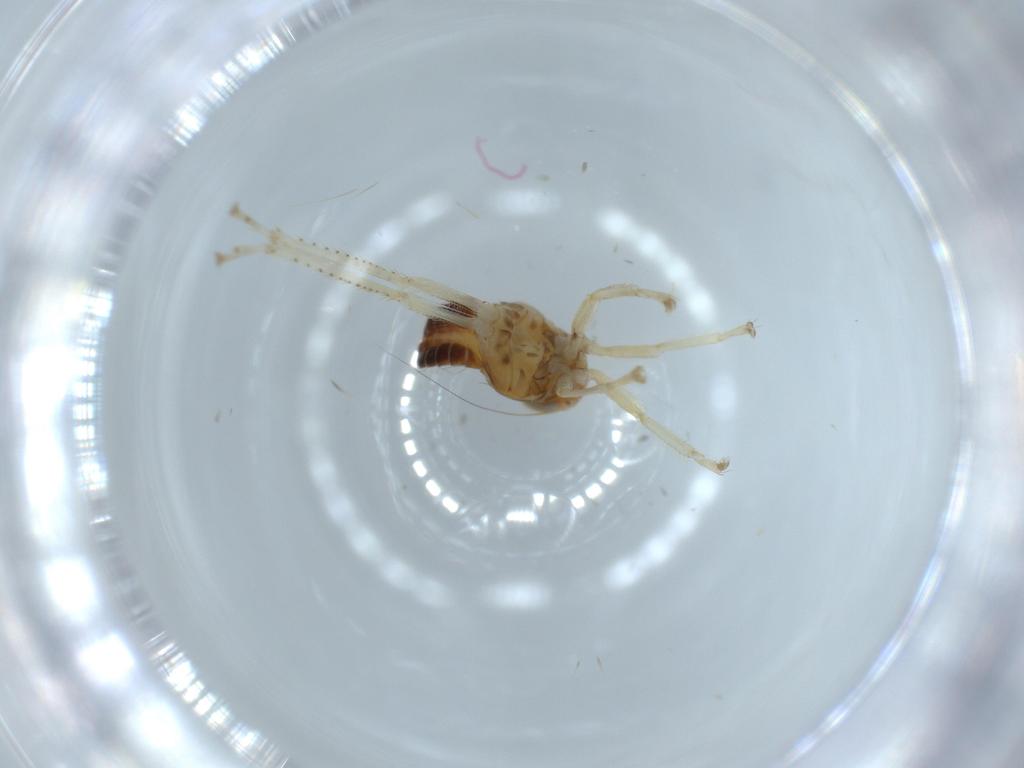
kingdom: Animalia
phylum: Arthropoda
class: Insecta
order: Hemiptera
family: Cicadellidae
